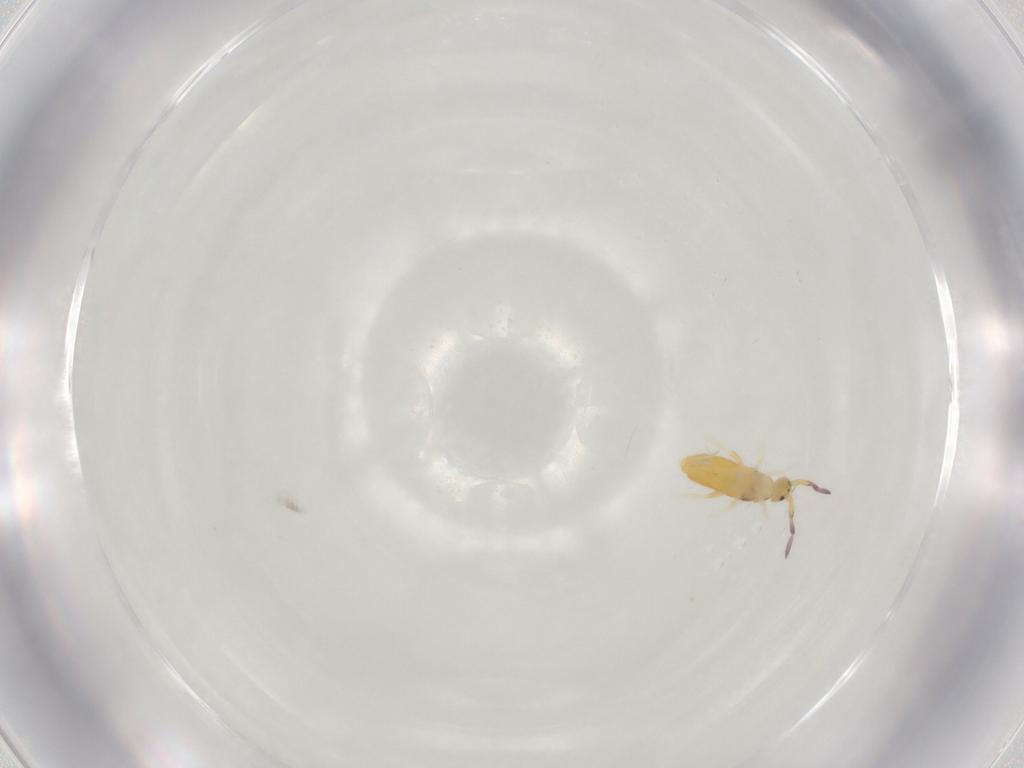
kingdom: Animalia
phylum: Arthropoda
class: Collembola
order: Entomobryomorpha
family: Entomobryidae
